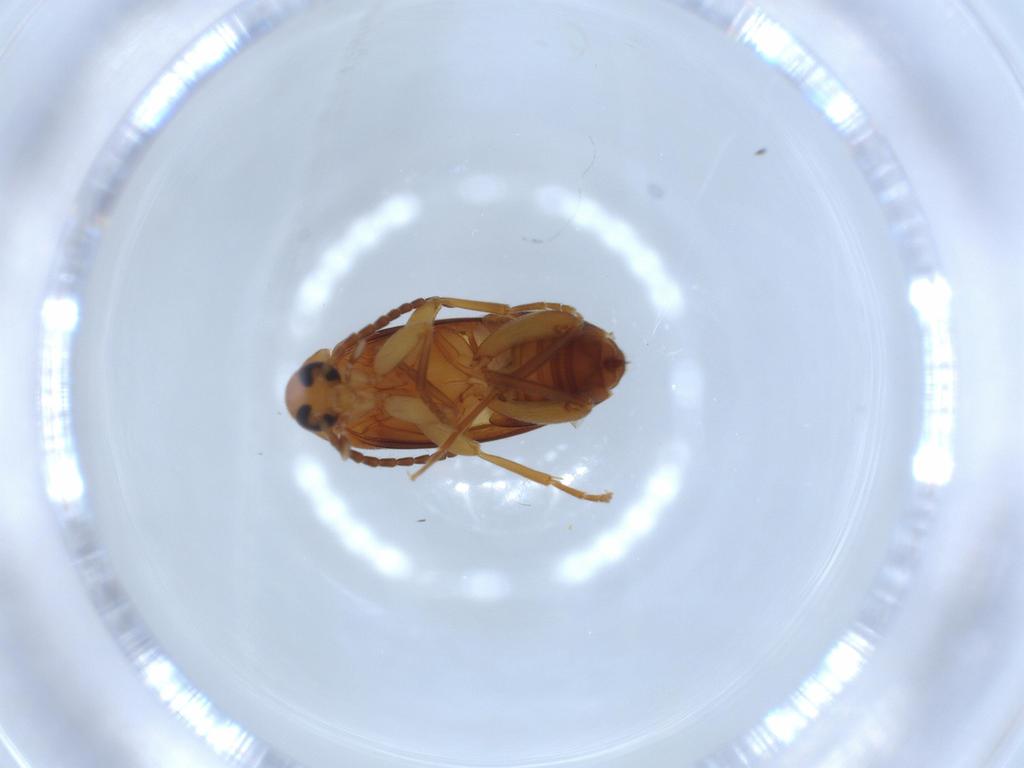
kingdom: Animalia
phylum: Arthropoda
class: Insecta
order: Coleoptera
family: Scraptiidae
